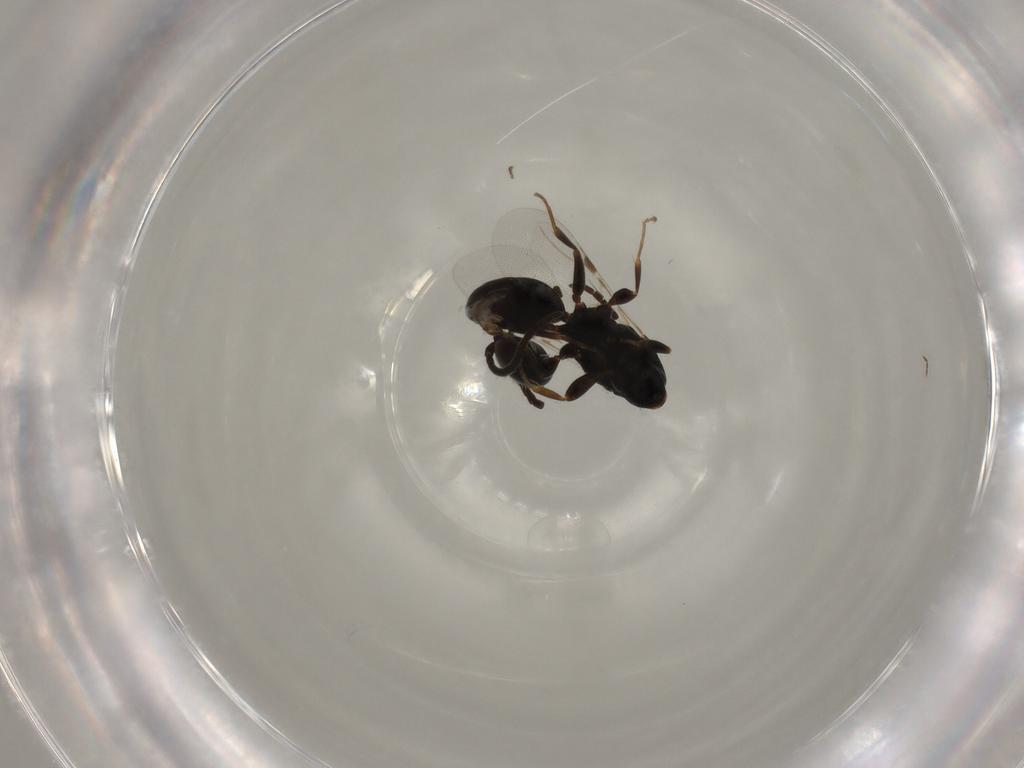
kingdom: Animalia
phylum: Arthropoda
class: Insecta
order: Hymenoptera
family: Bethylidae
